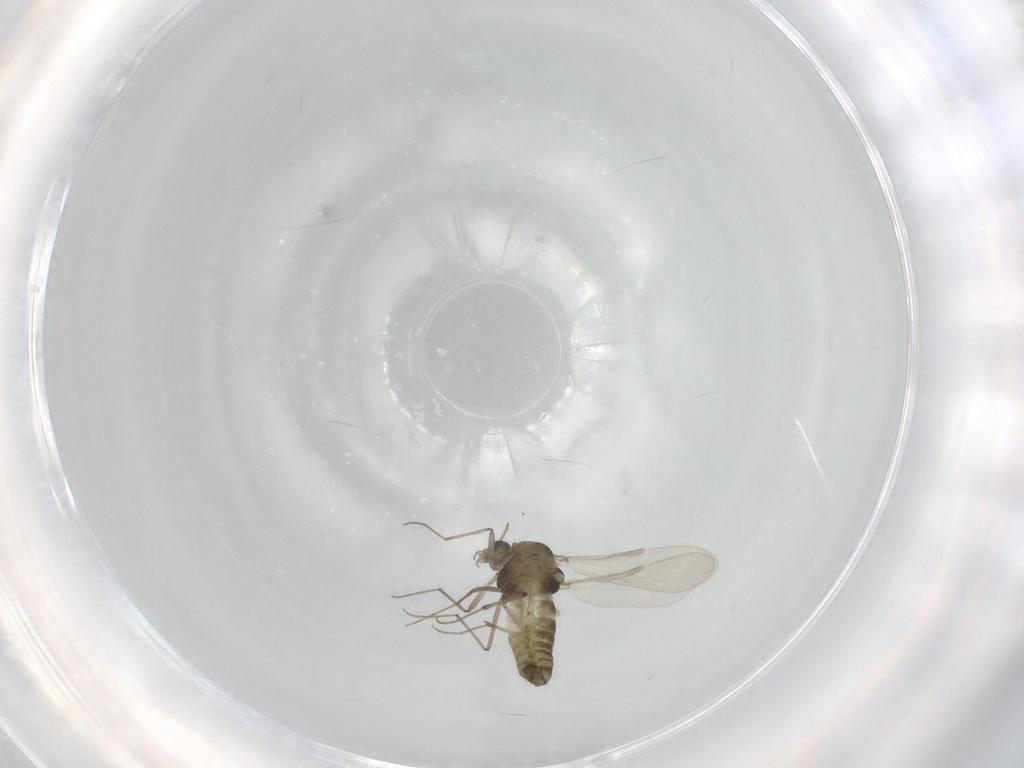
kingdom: Animalia
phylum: Arthropoda
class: Insecta
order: Diptera
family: Chironomidae
